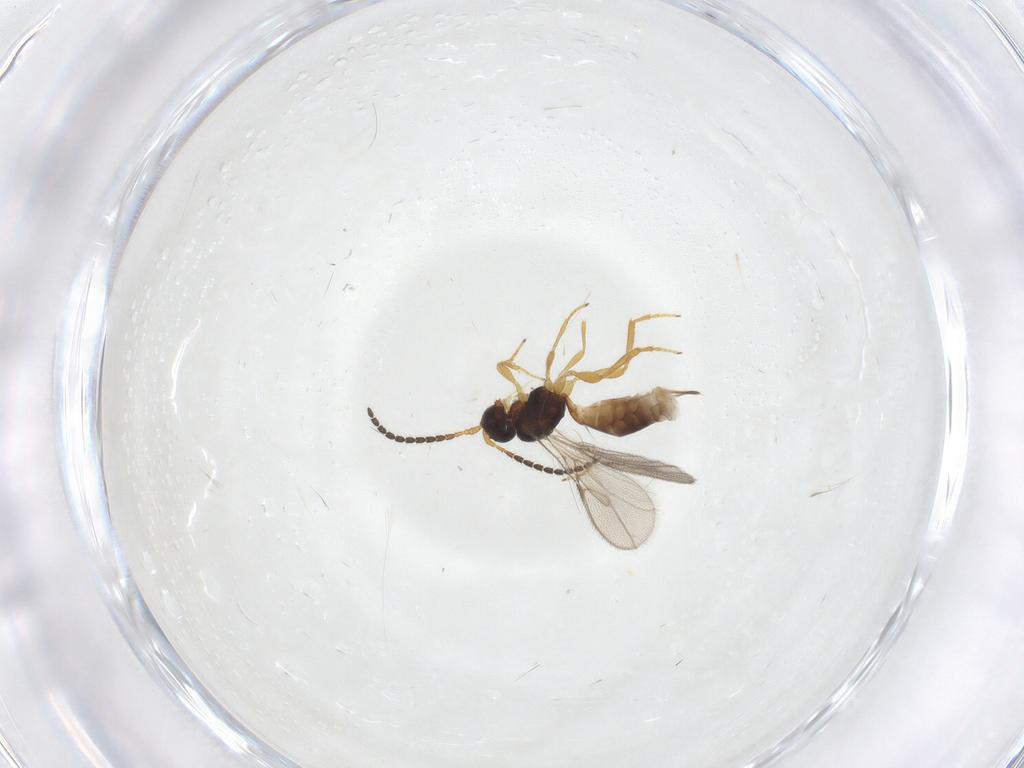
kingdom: Animalia
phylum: Arthropoda
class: Insecta
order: Hymenoptera
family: Braconidae
